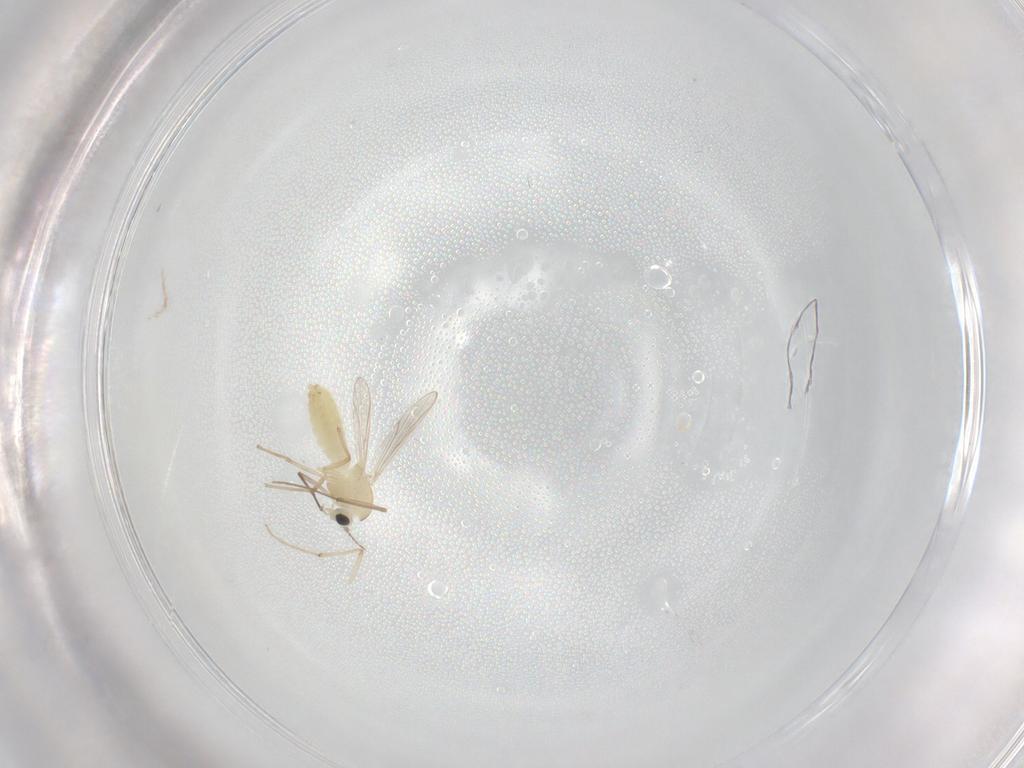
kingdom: Animalia
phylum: Arthropoda
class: Insecta
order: Diptera
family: Chironomidae
